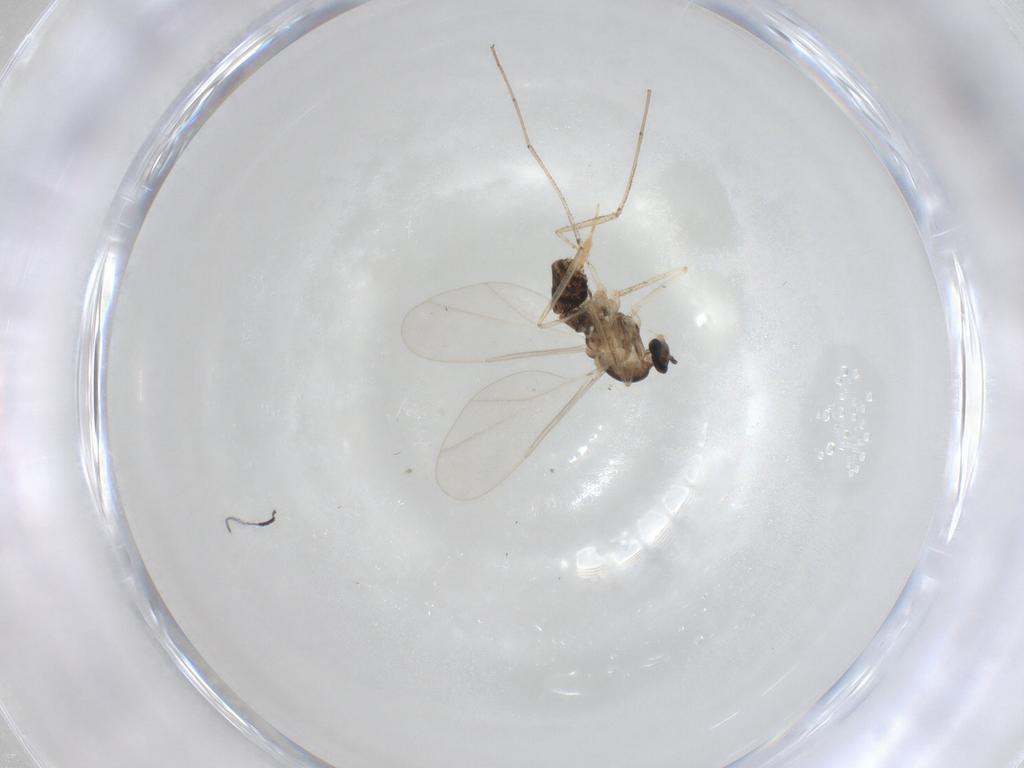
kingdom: Animalia
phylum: Arthropoda
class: Insecta
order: Diptera
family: Cecidomyiidae
